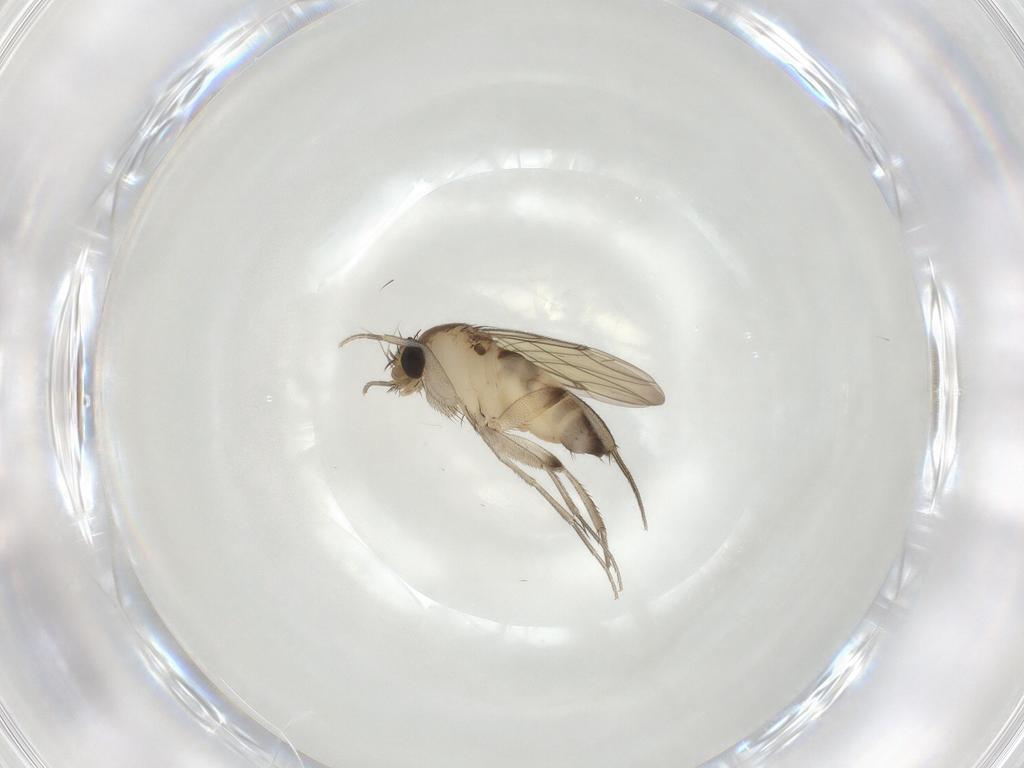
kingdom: Animalia
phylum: Arthropoda
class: Insecta
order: Diptera
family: Phoridae
